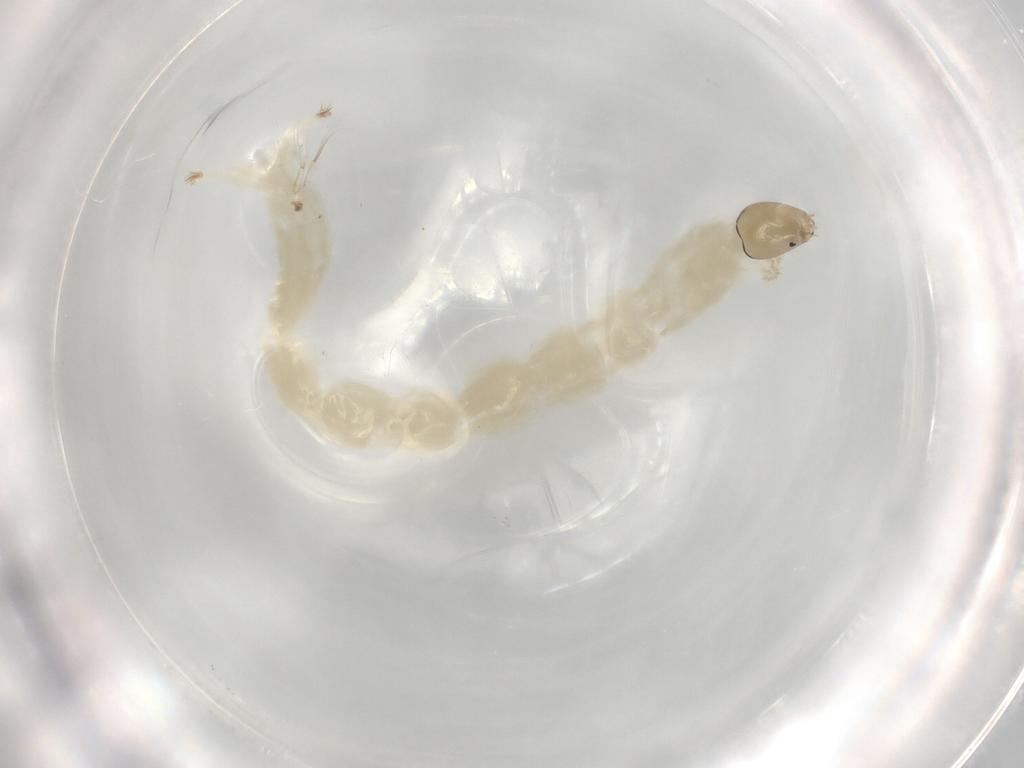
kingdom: Animalia
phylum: Arthropoda
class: Insecta
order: Diptera
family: Chironomidae
